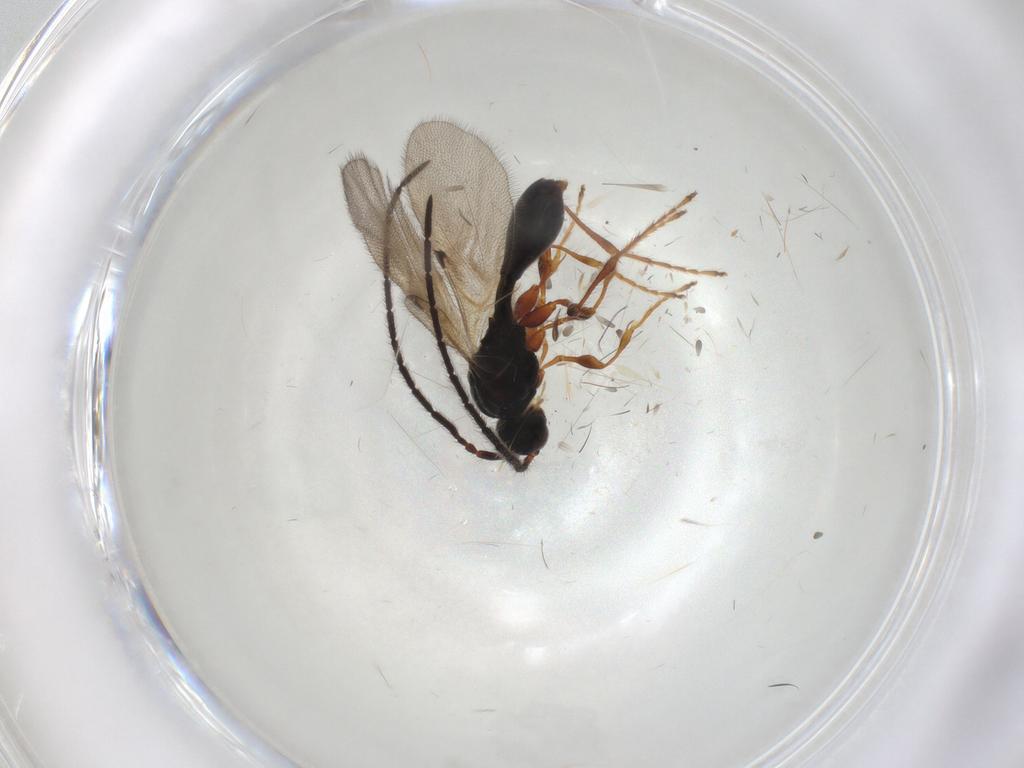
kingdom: Animalia
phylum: Arthropoda
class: Insecta
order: Hymenoptera
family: Diapriidae
